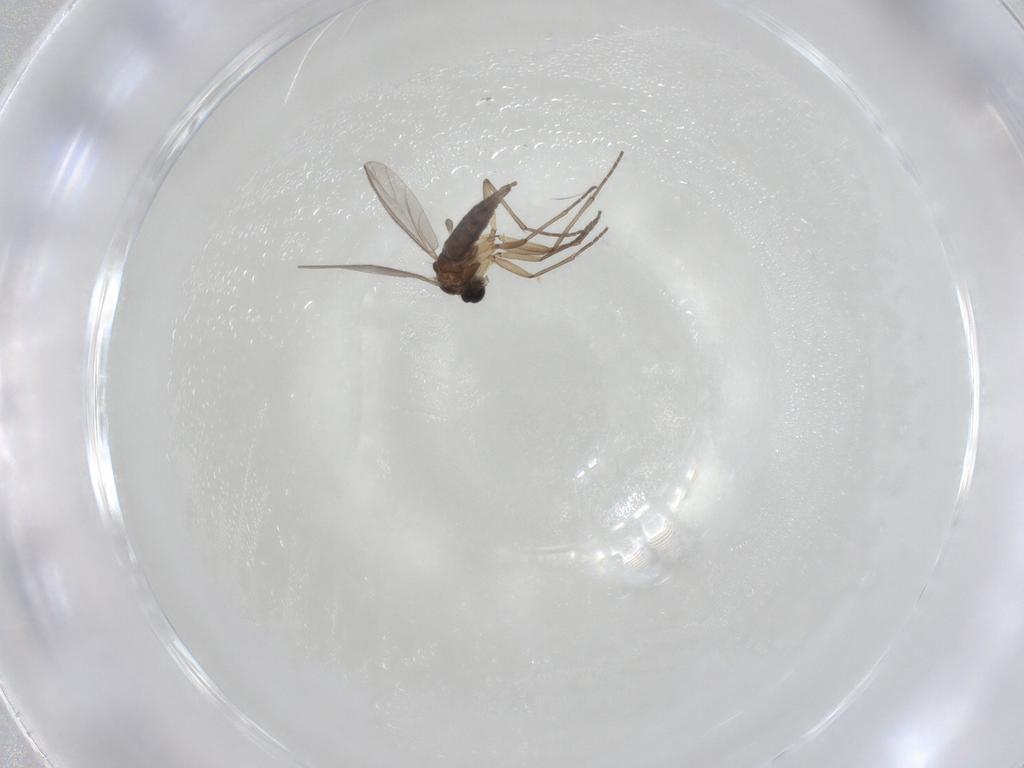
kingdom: Animalia
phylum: Arthropoda
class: Insecta
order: Diptera
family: Sciaridae
